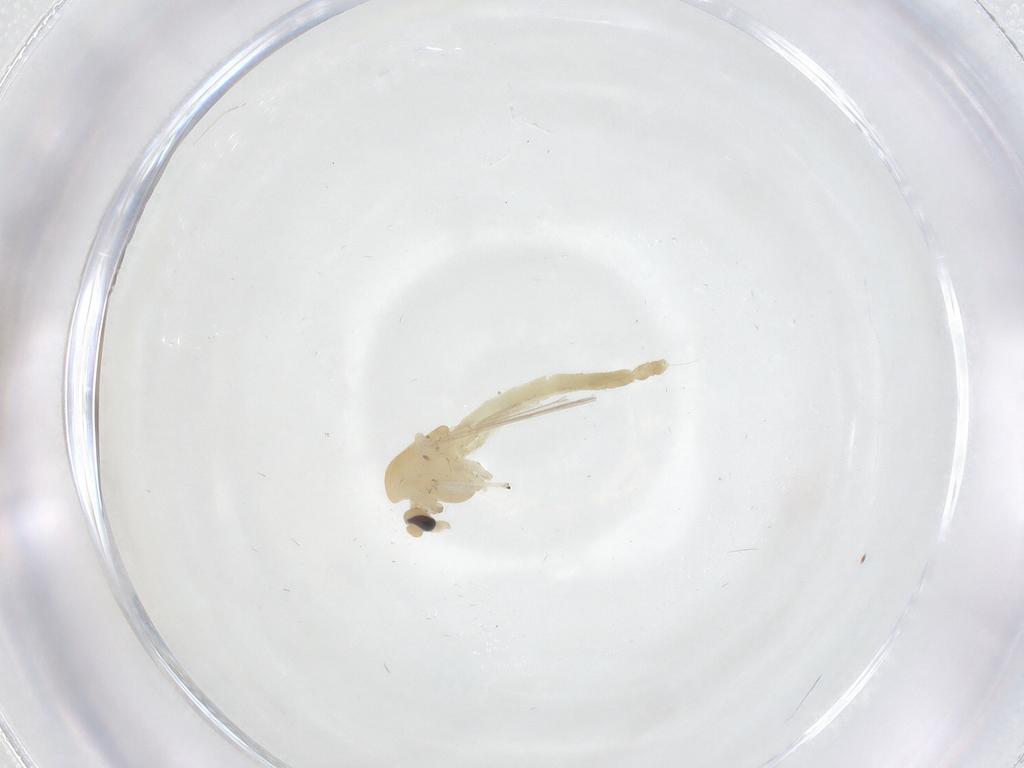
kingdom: Animalia
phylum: Arthropoda
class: Insecta
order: Diptera
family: Chironomidae
